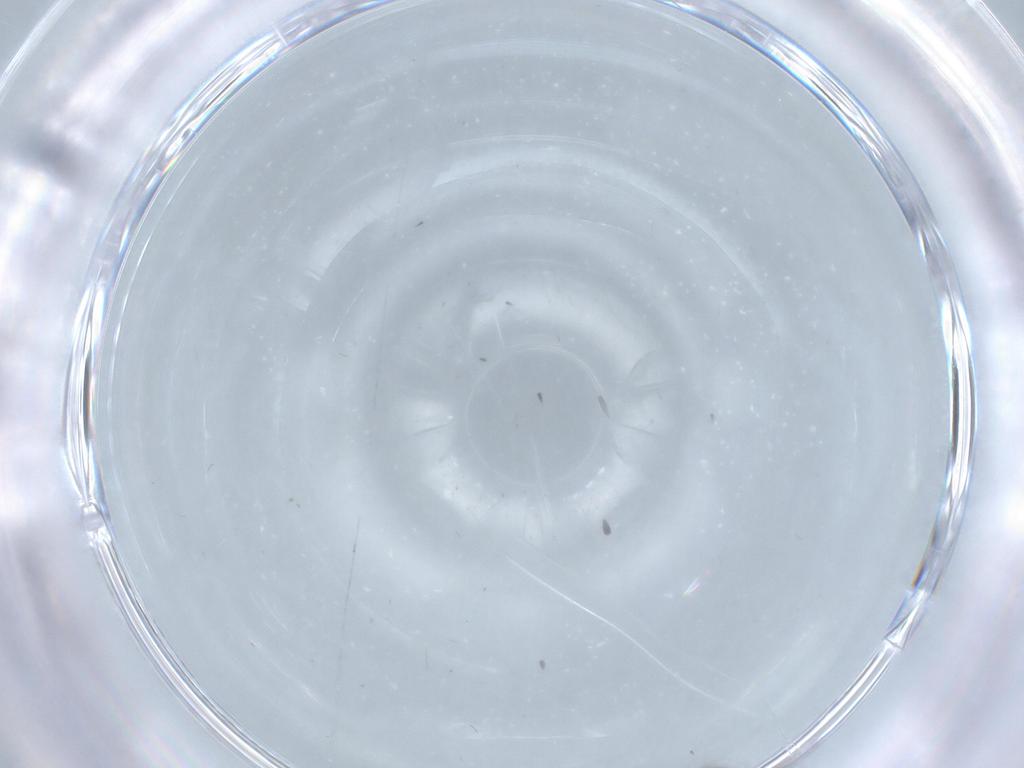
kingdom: Animalia
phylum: Arthropoda
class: Insecta
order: Diptera
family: Cecidomyiidae
